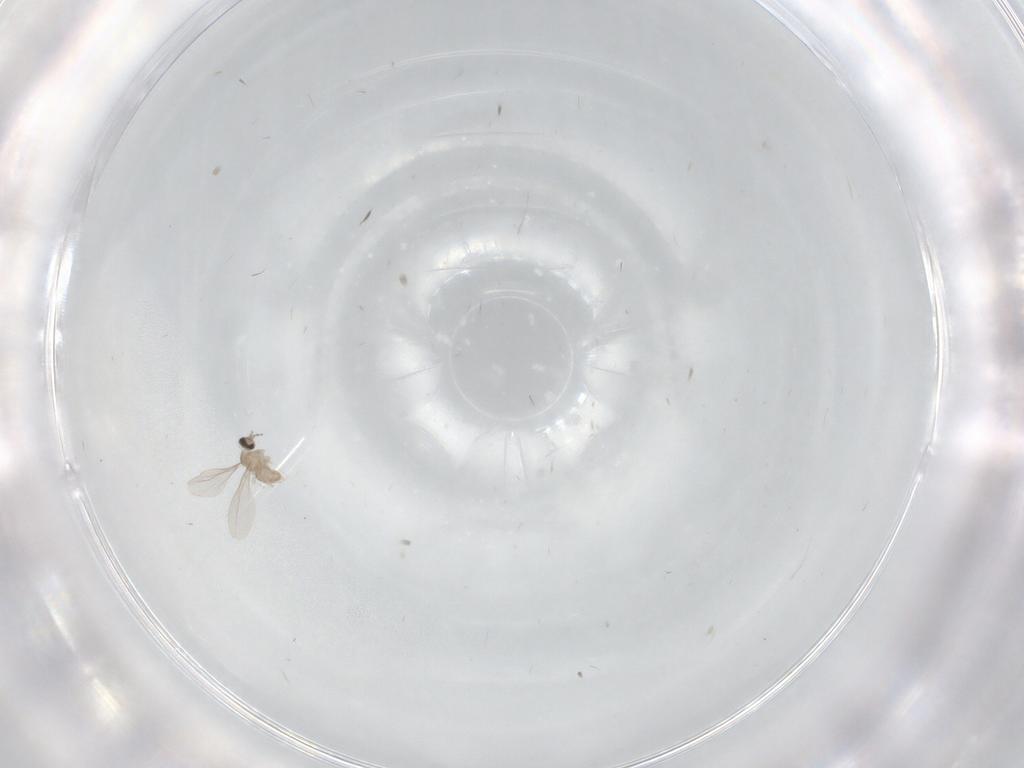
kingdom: Animalia
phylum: Arthropoda
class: Insecta
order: Diptera
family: Cecidomyiidae
